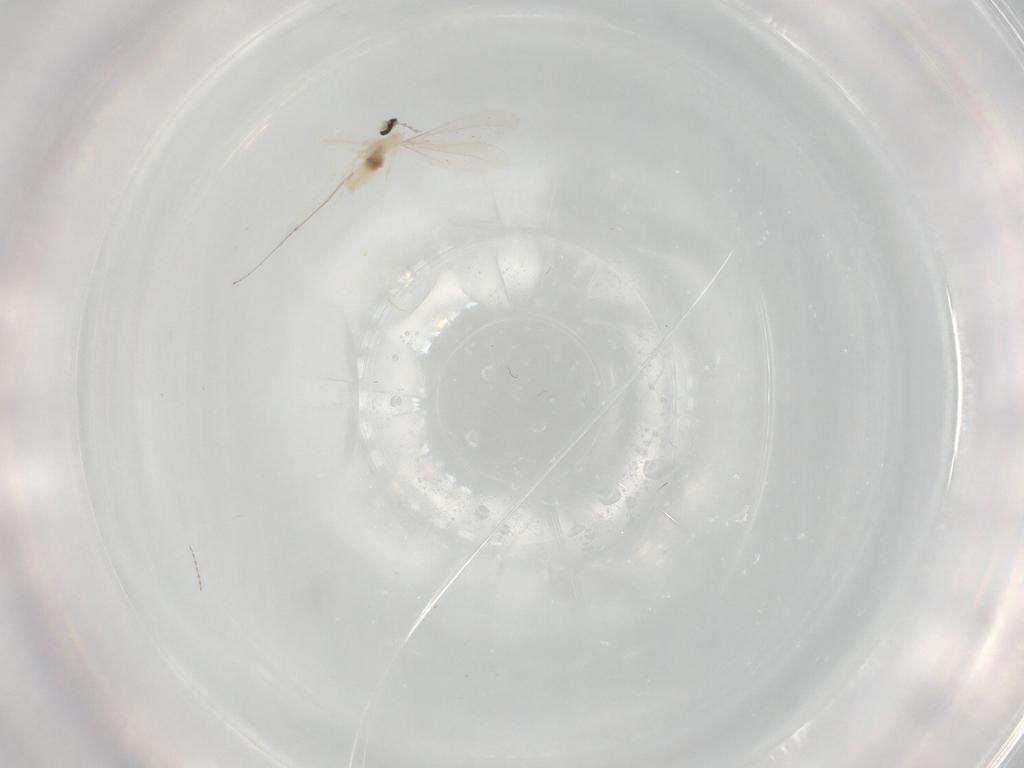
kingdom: Animalia
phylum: Arthropoda
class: Insecta
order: Diptera
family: Cecidomyiidae
